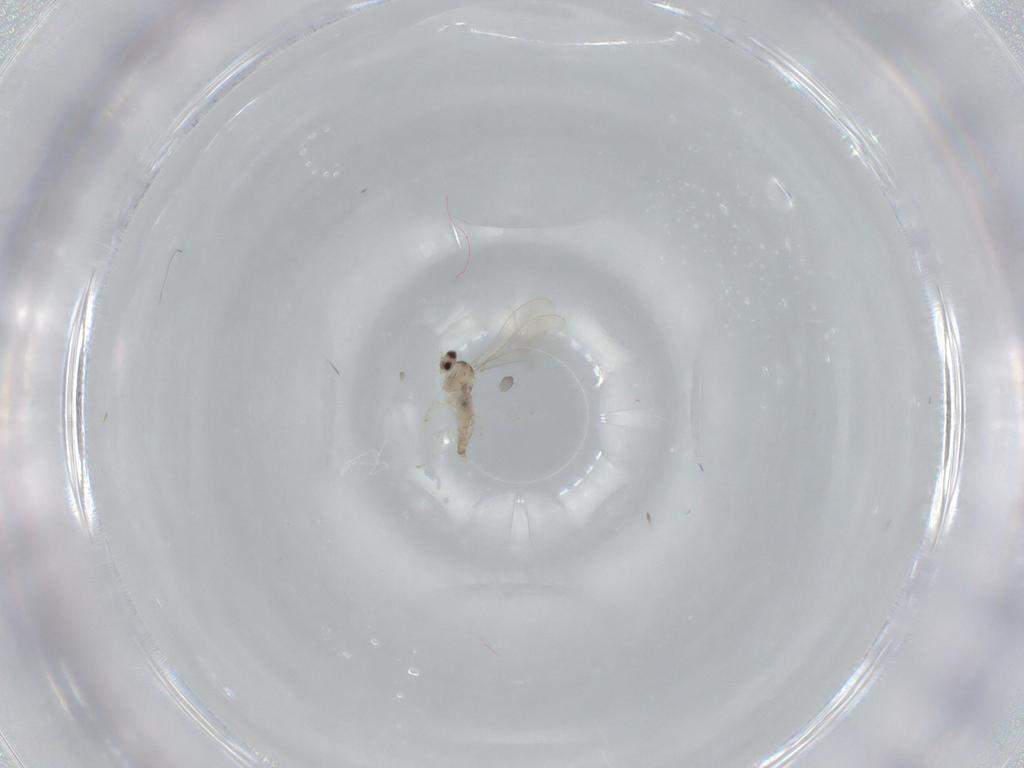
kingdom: Animalia
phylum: Arthropoda
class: Insecta
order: Diptera
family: Cecidomyiidae
